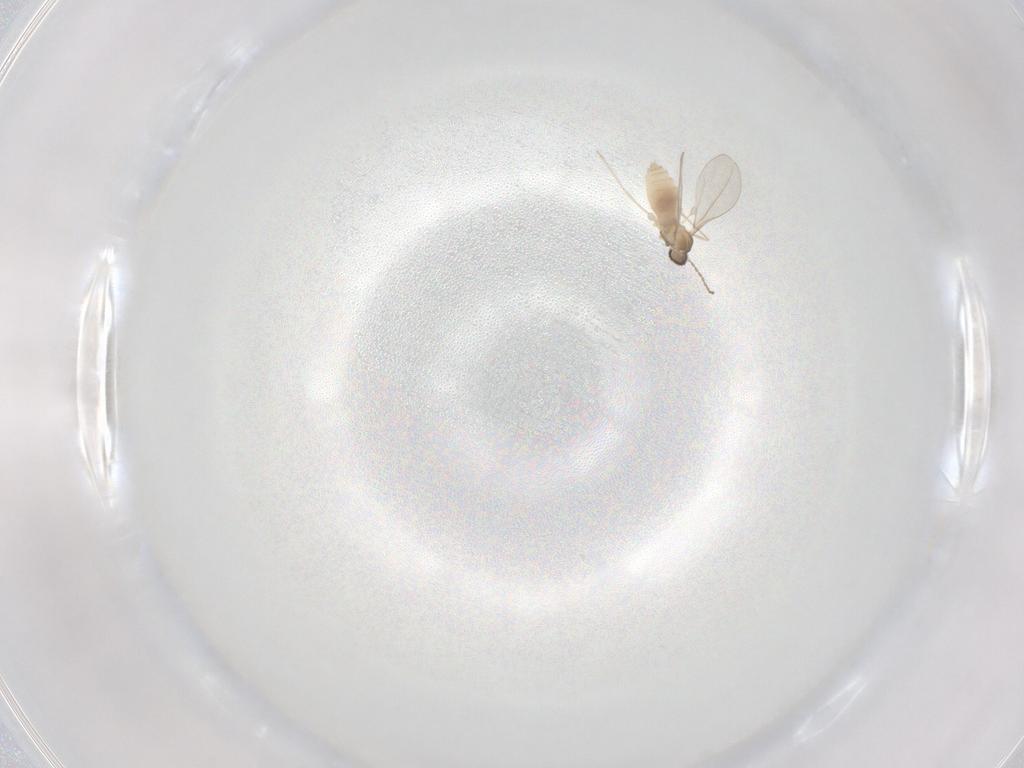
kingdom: Animalia
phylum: Arthropoda
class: Insecta
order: Diptera
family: Cecidomyiidae
